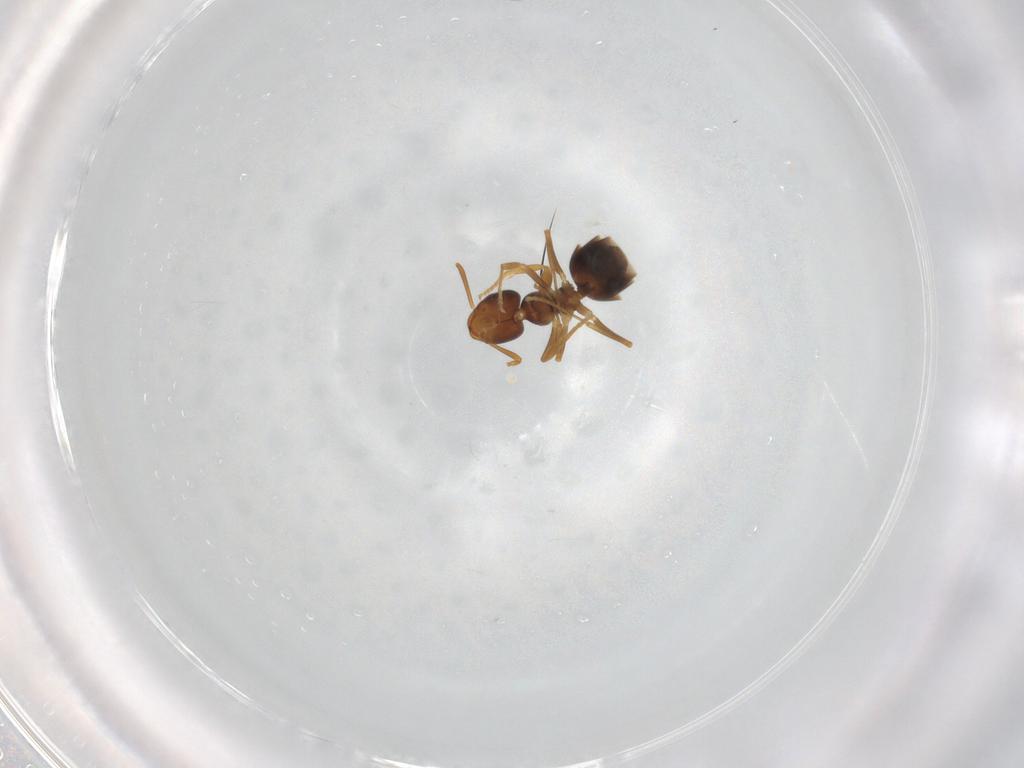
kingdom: Animalia
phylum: Arthropoda
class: Insecta
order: Hymenoptera
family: Formicidae
